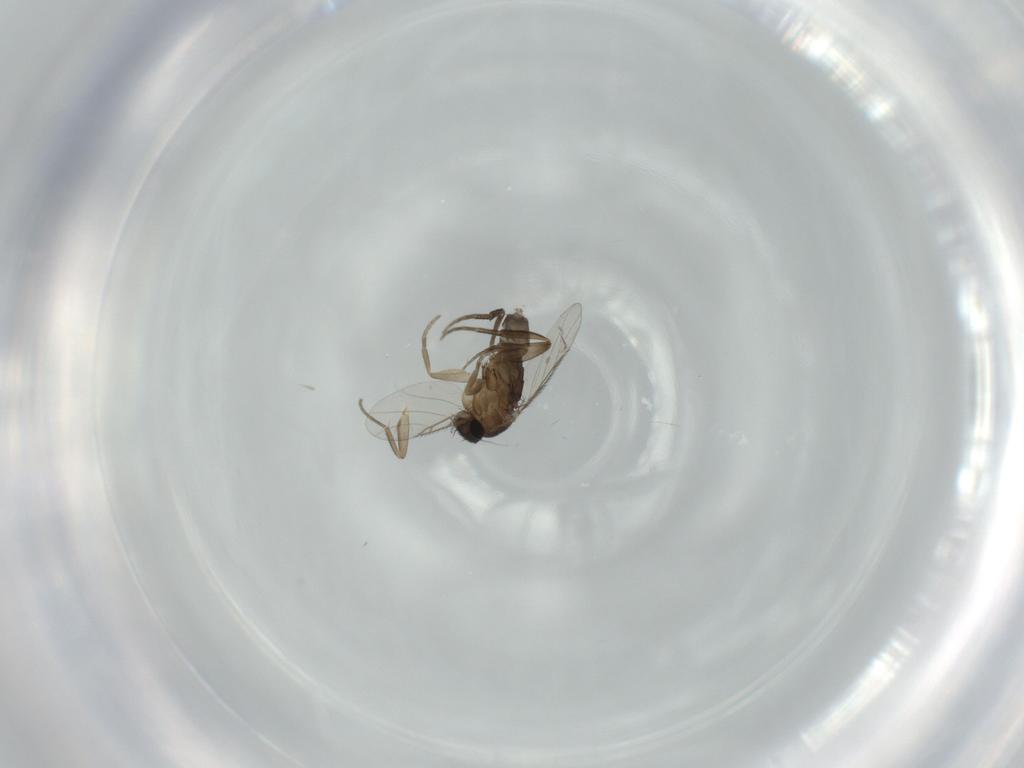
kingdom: Animalia
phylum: Arthropoda
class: Insecta
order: Diptera
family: Phoridae
